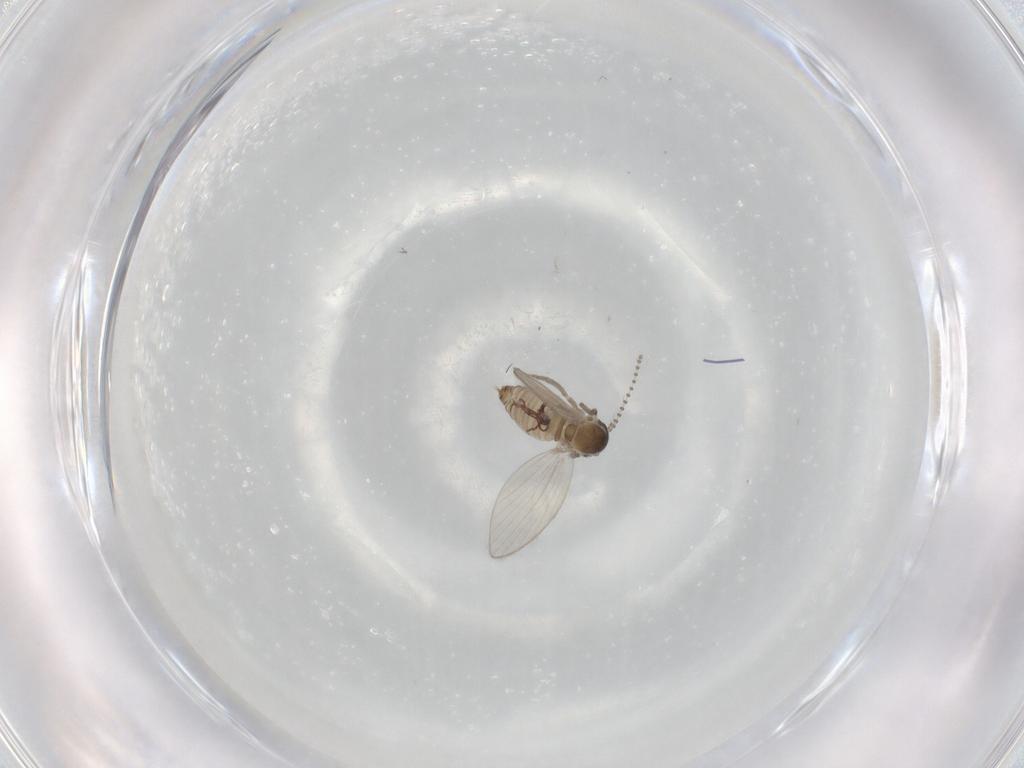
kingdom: Animalia
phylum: Arthropoda
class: Insecta
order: Diptera
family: Psychodidae
